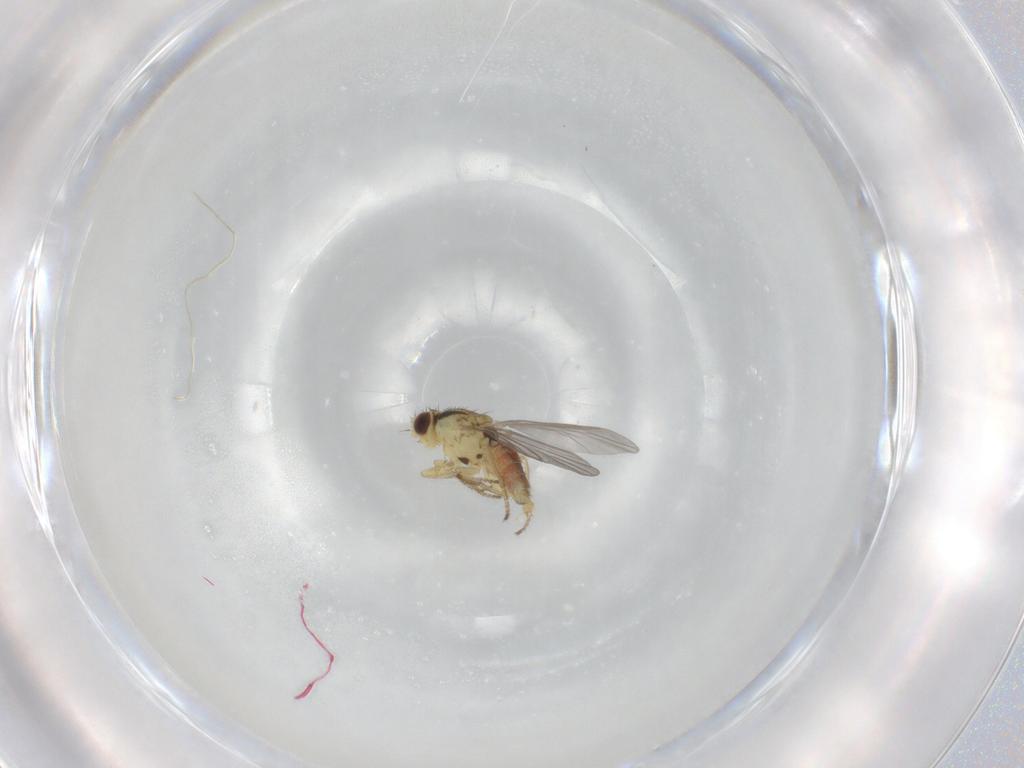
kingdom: Animalia
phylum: Arthropoda
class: Insecta
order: Diptera
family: Agromyzidae
